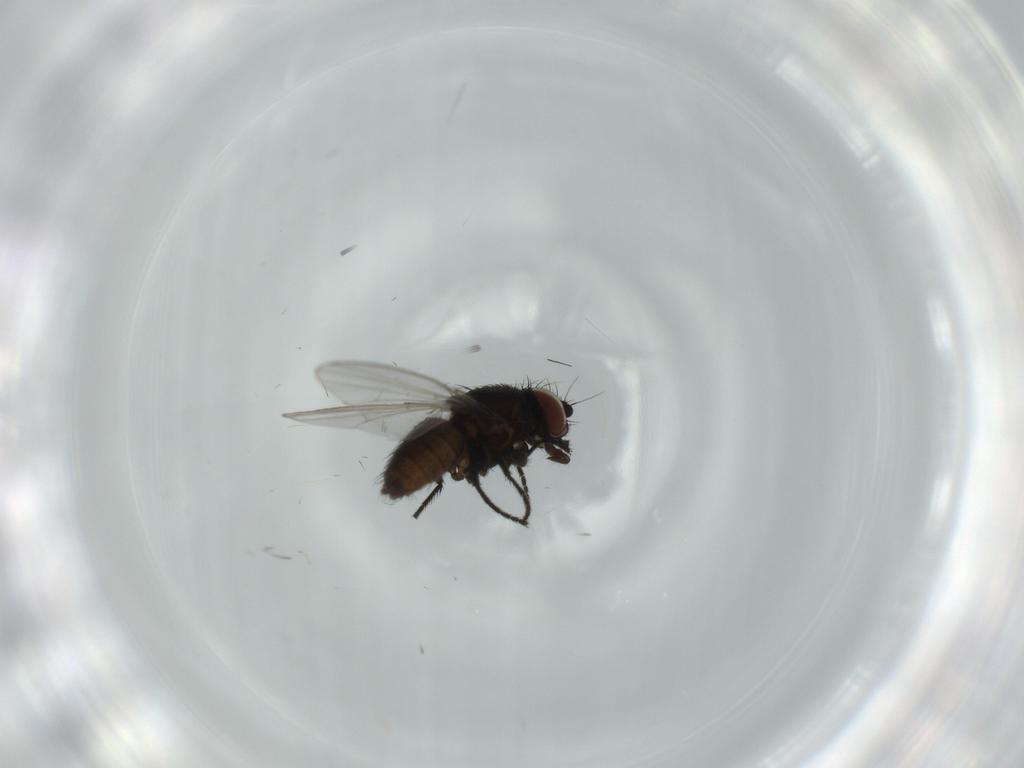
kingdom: Animalia
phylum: Arthropoda
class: Insecta
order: Diptera
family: Milichiidae
